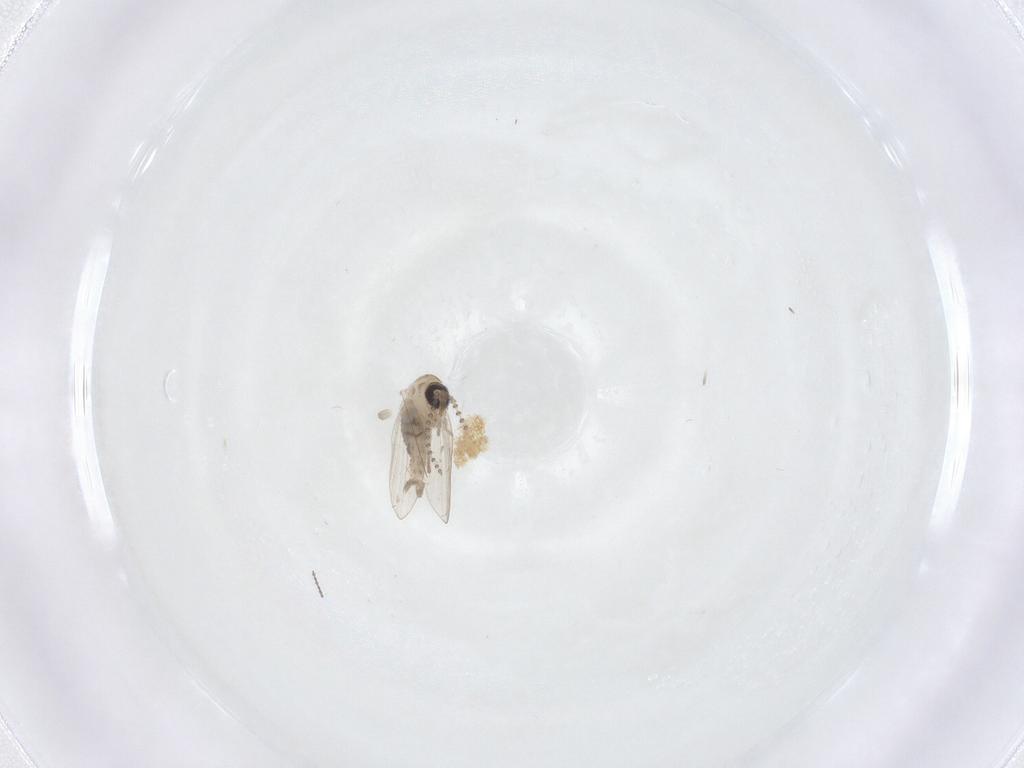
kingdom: Animalia
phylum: Arthropoda
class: Insecta
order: Diptera
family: Psychodidae
